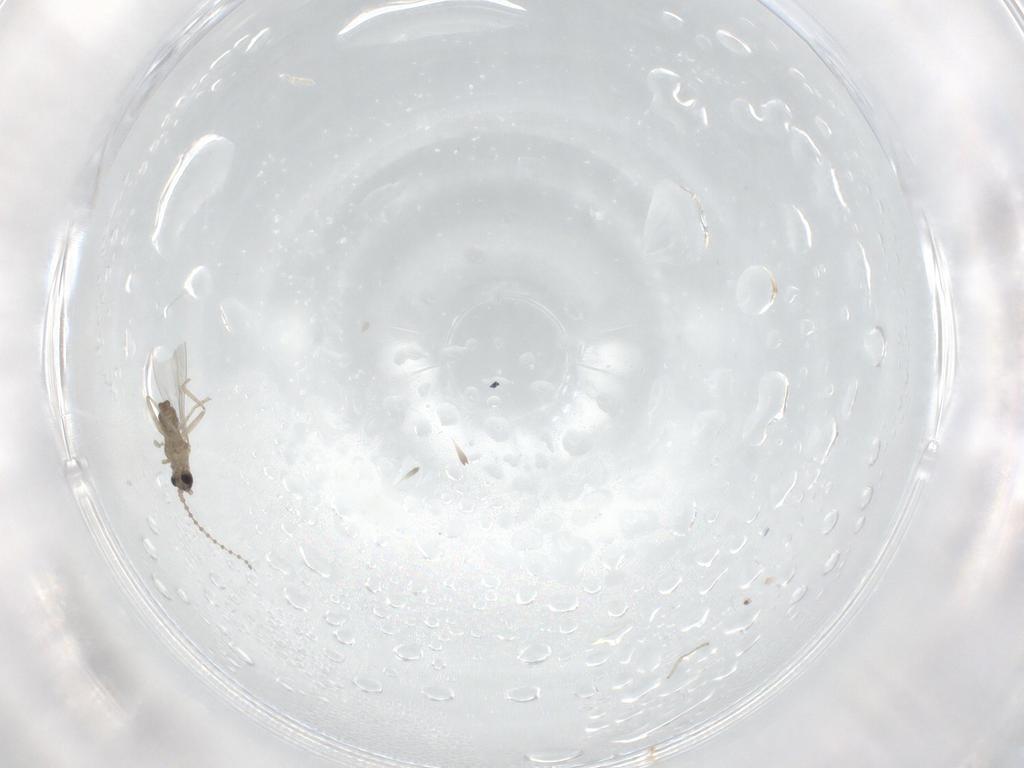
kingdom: Animalia
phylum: Arthropoda
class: Insecta
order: Diptera
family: Cecidomyiidae
